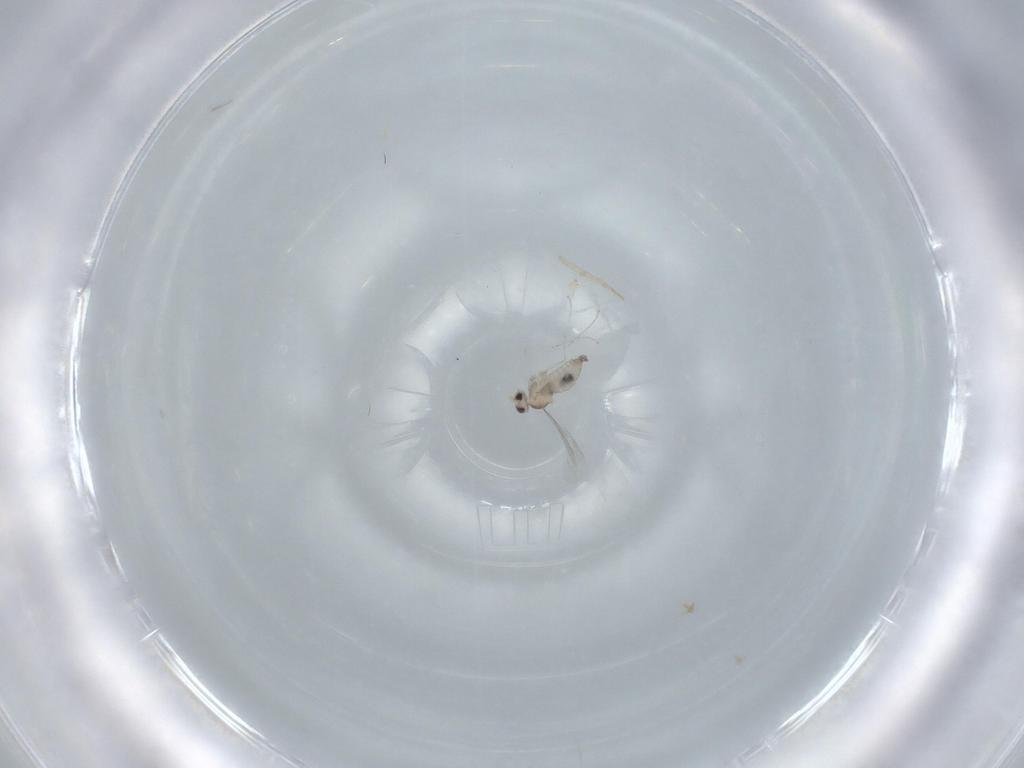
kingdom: Animalia
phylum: Arthropoda
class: Insecta
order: Diptera
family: Cecidomyiidae
